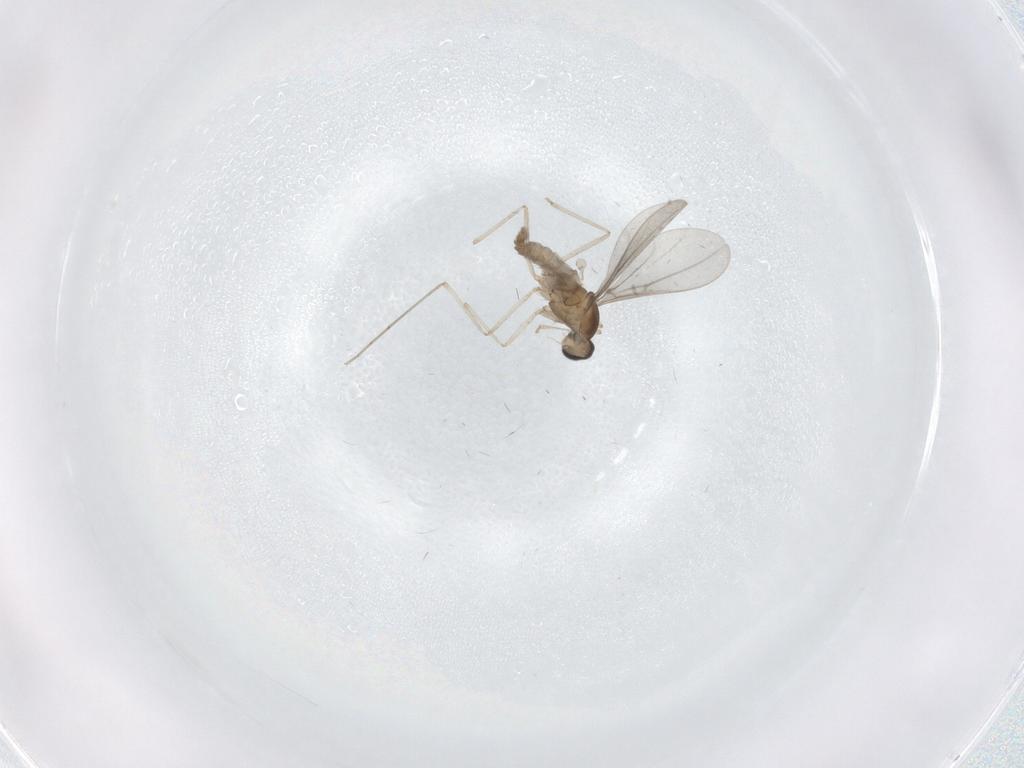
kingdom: Animalia
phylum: Arthropoda
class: Insecta
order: Diptera
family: Cecidomyiidae
